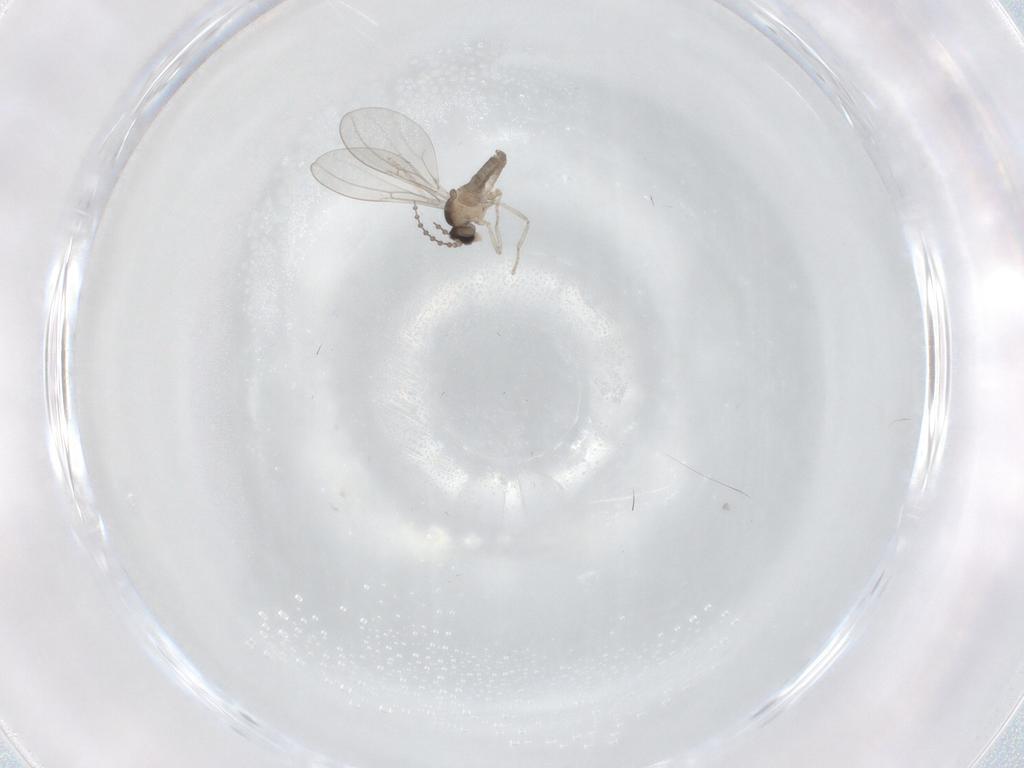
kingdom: Animalia
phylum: Arthropoda
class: Insecta
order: Diptera
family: Cecidomyiidae
